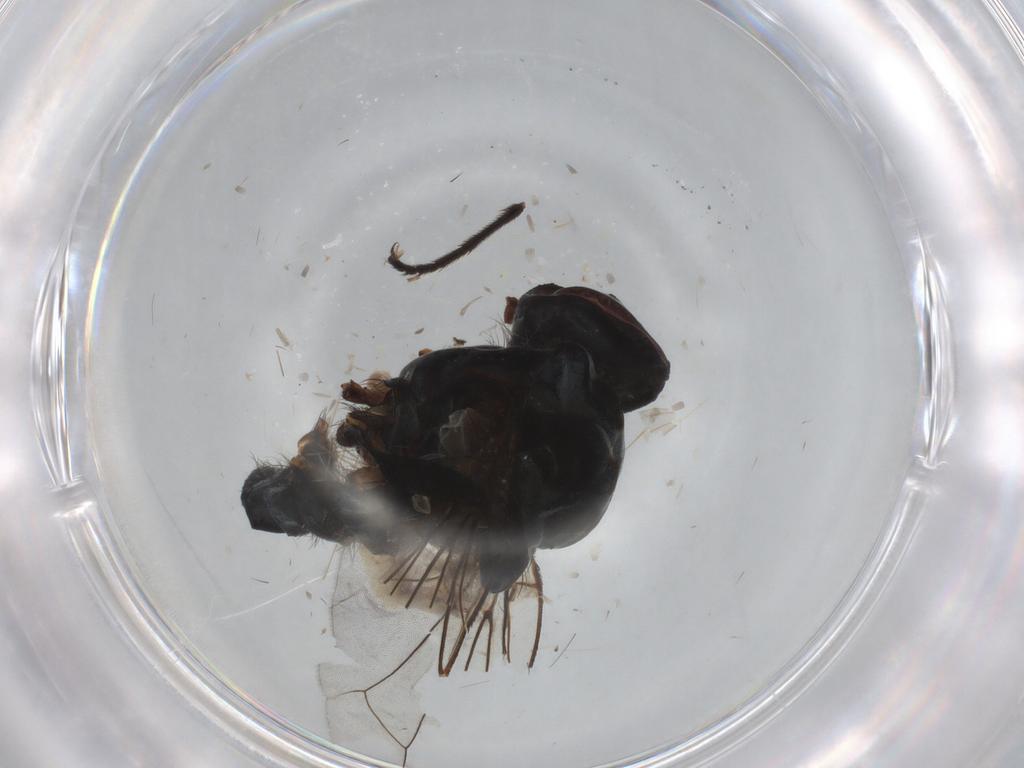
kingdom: Animalia
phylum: Arthropoda
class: Insecta
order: Diptera
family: Anthomyiidae
